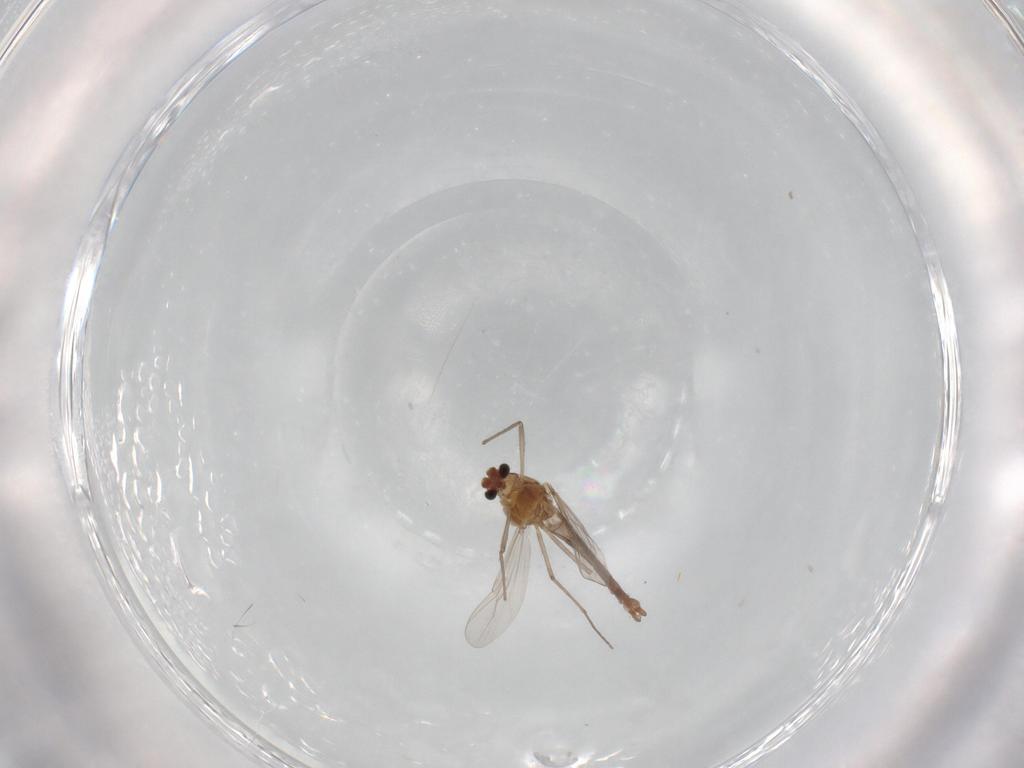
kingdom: Animalia
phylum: Arthropoda
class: Insecta
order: Diptera
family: Chironomidae
